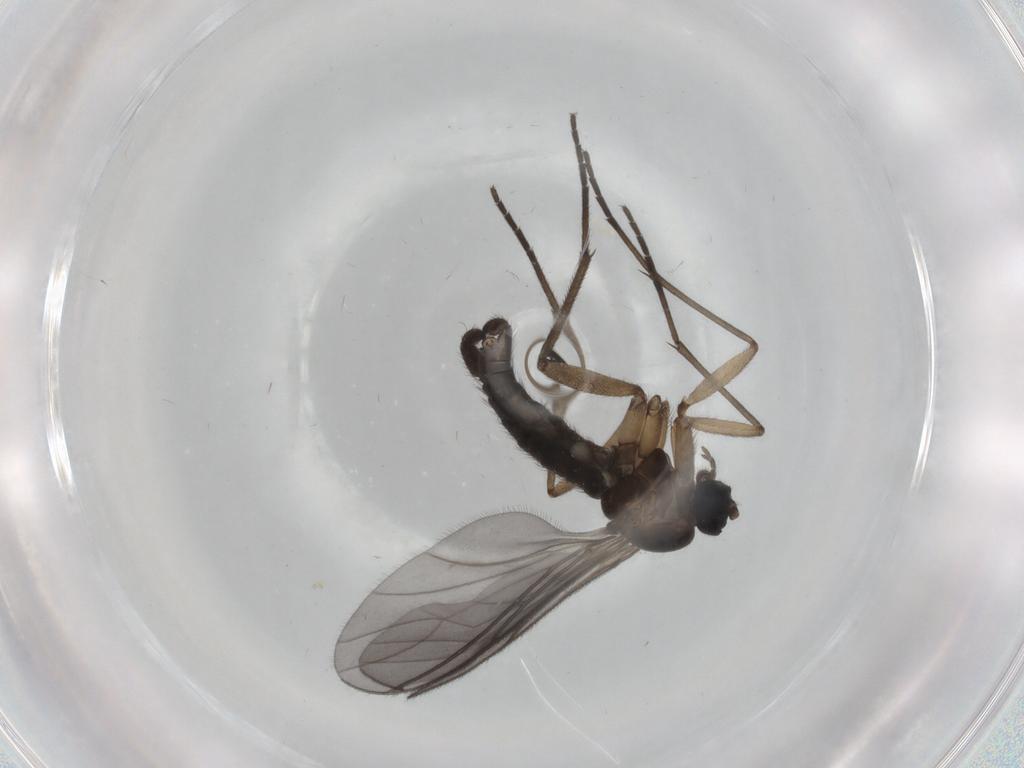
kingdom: Animalia
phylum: Arthropoda
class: Insecta
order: Diptera
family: Sciaridae
